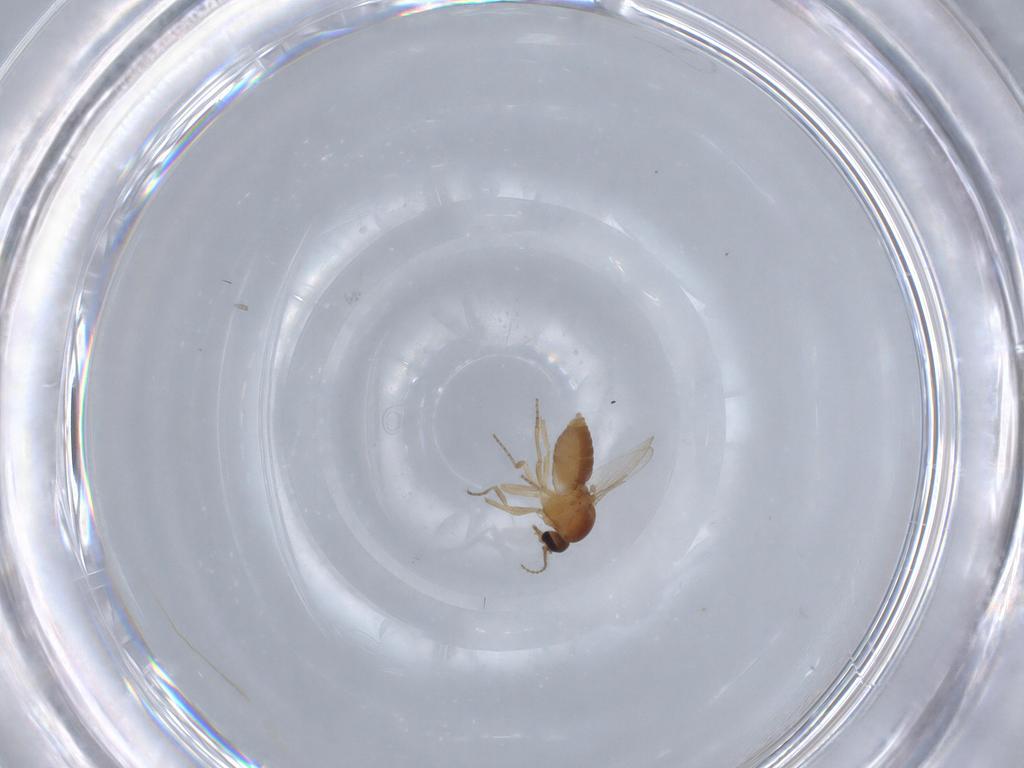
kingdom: Animalia
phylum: Arthropoda
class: Insecta
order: Diptera
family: Ceratopogonidae
